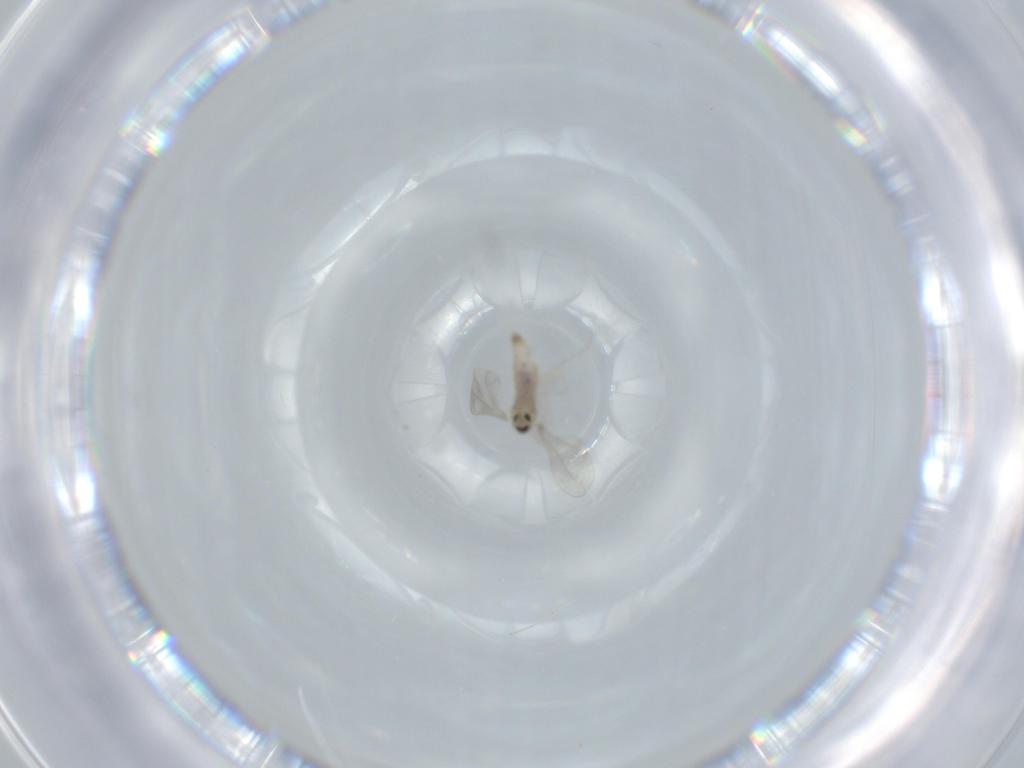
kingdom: Animalia
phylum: Arthropoda
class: Insecta
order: Diptera
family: Cecidomyiidae
